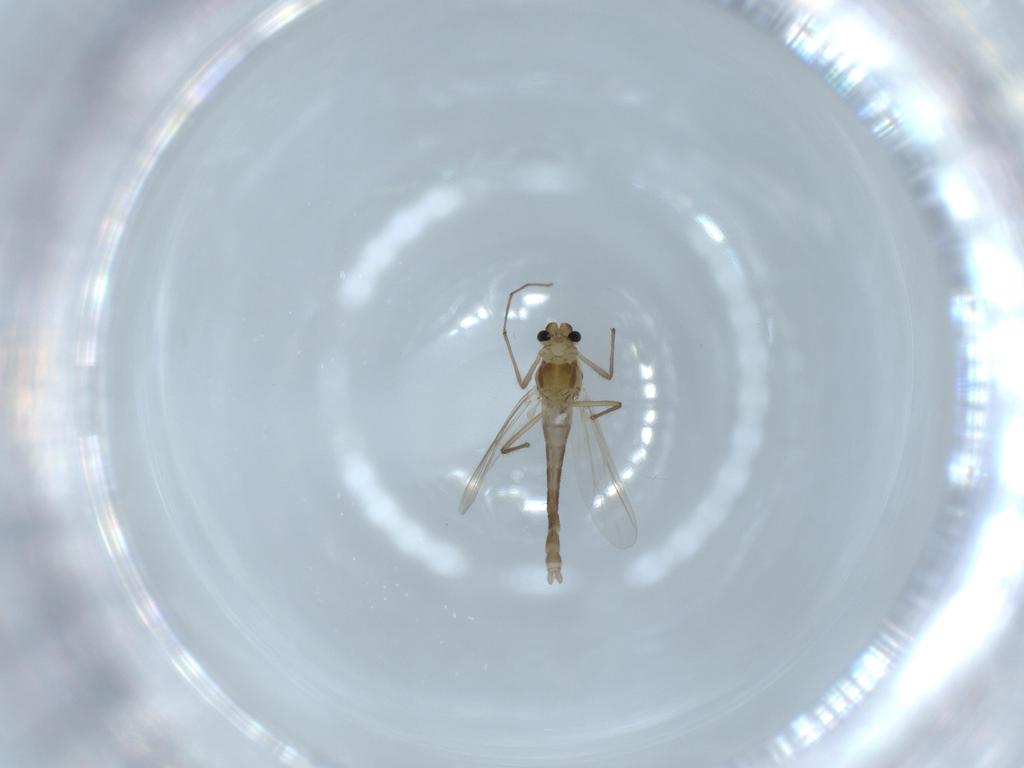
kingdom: Animalia
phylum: Arthropoda
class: Insecta
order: Diptera
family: Chironomidae
